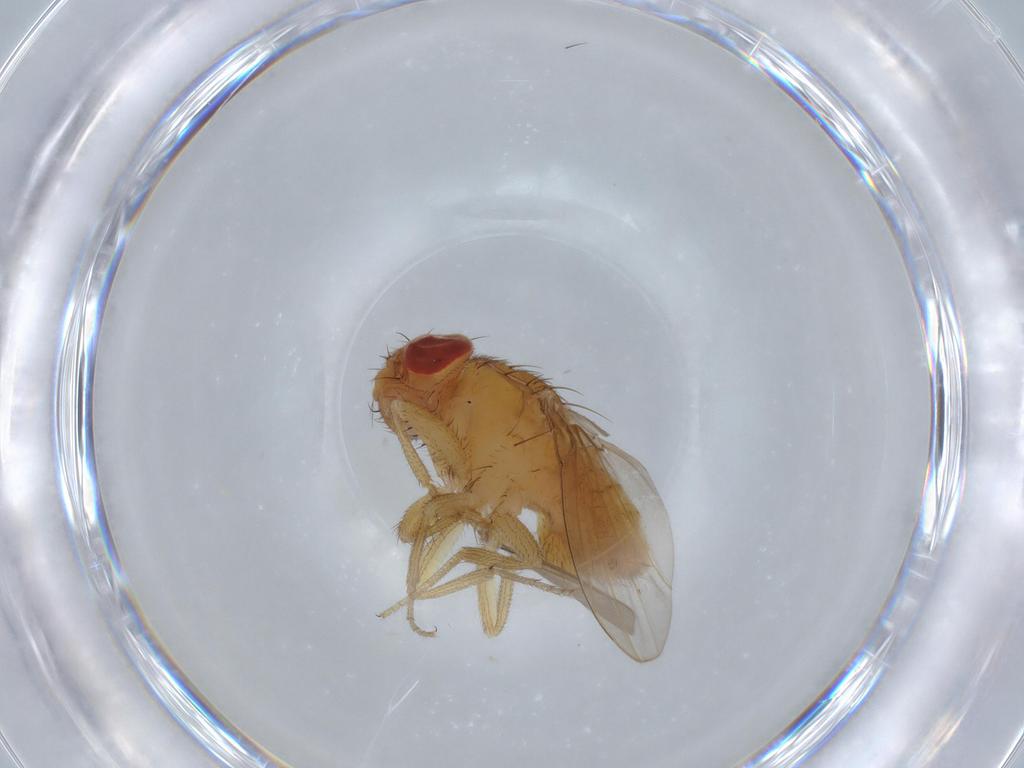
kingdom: Animalia
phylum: Arthropoda
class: Insecta
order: Diptera
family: Drosophilidae
